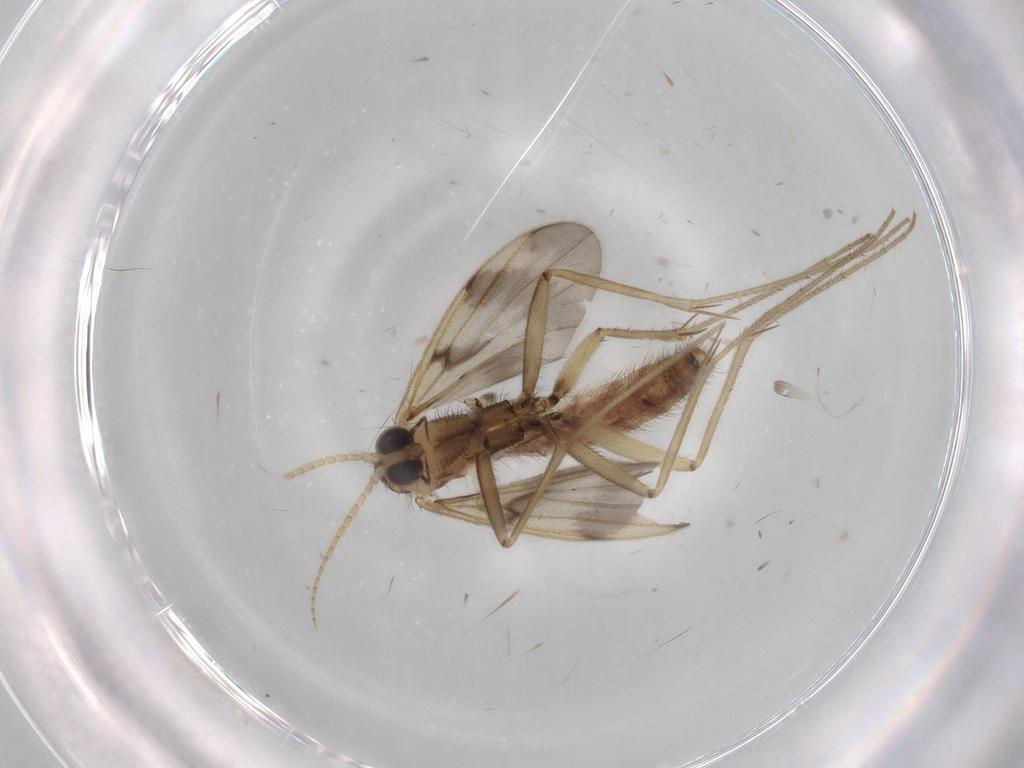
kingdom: Animalia
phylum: Arthropoda
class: Insecta
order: Diptera
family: Mycetophilidae
